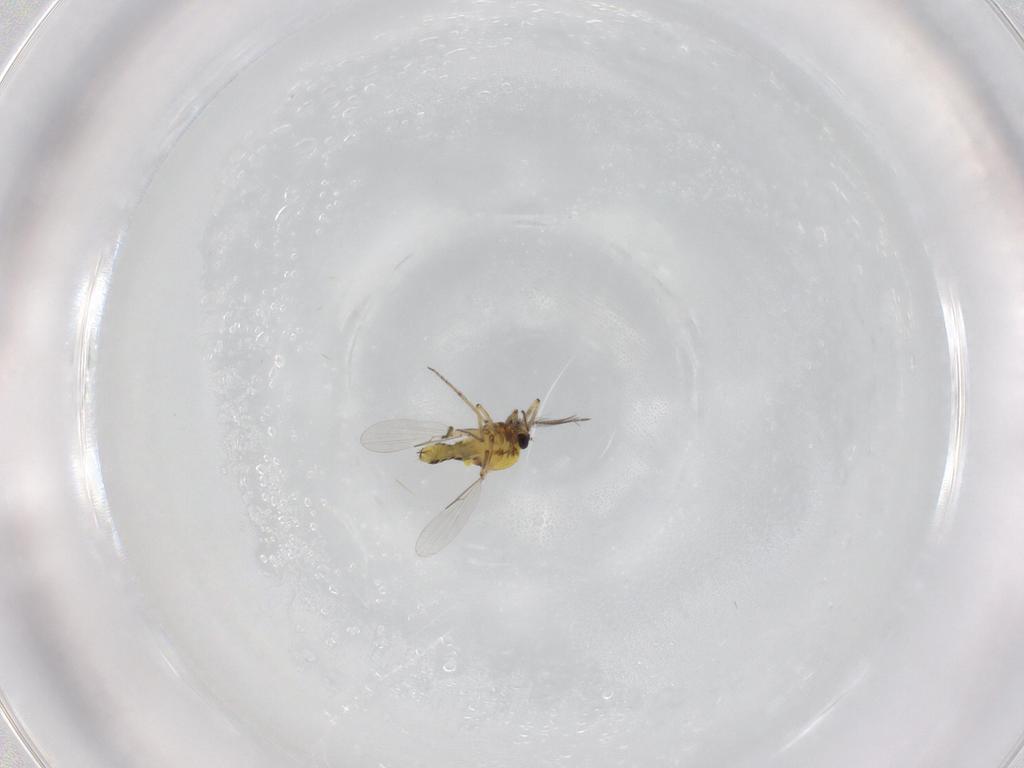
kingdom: Animalia
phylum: Arthropoda
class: Insecta
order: Diptera
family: Ceratopogonidae
